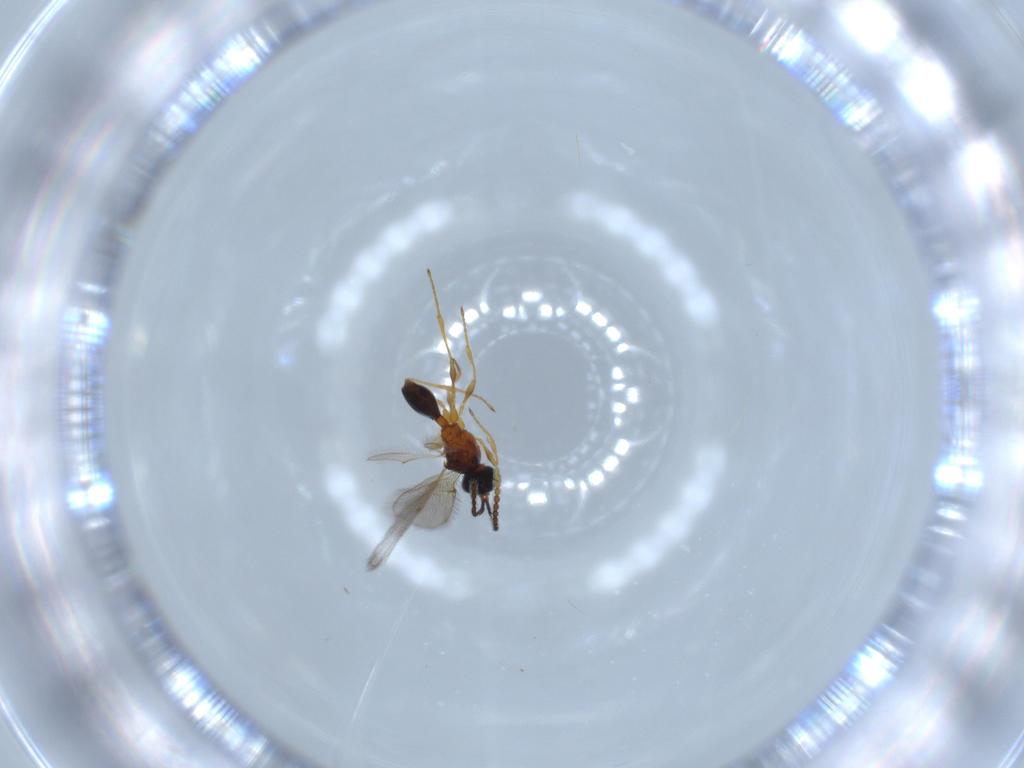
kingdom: Animalia
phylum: Arthropoda
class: Insecta
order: Hymenoptera
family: Diapriidae
